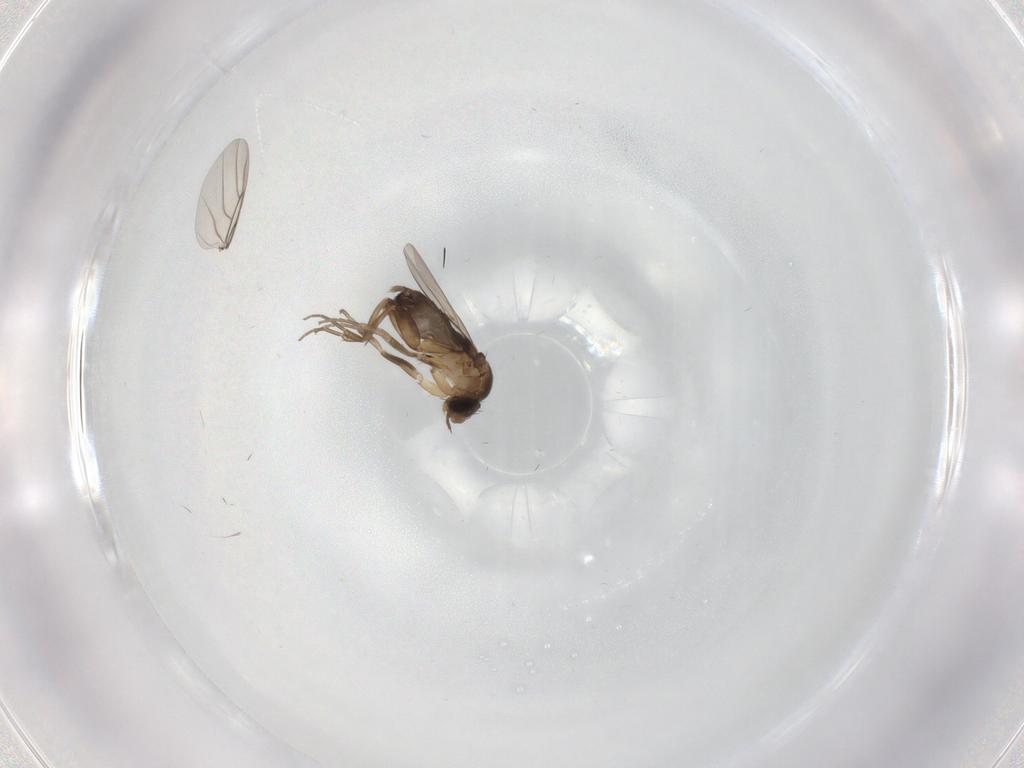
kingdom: Animalia
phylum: Arthropoda
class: Insecta
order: Diptera
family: Phoridae
